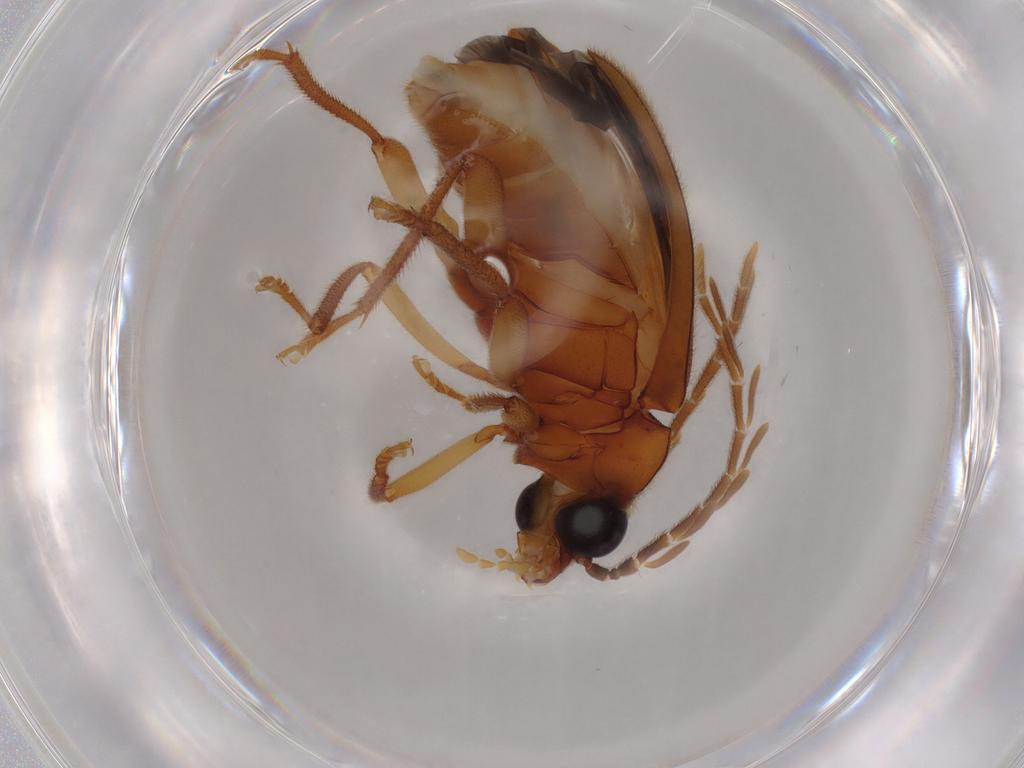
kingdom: Animalia
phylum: Arthropoda
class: Insecta
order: Coleoptera
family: Ptilodactylidae
